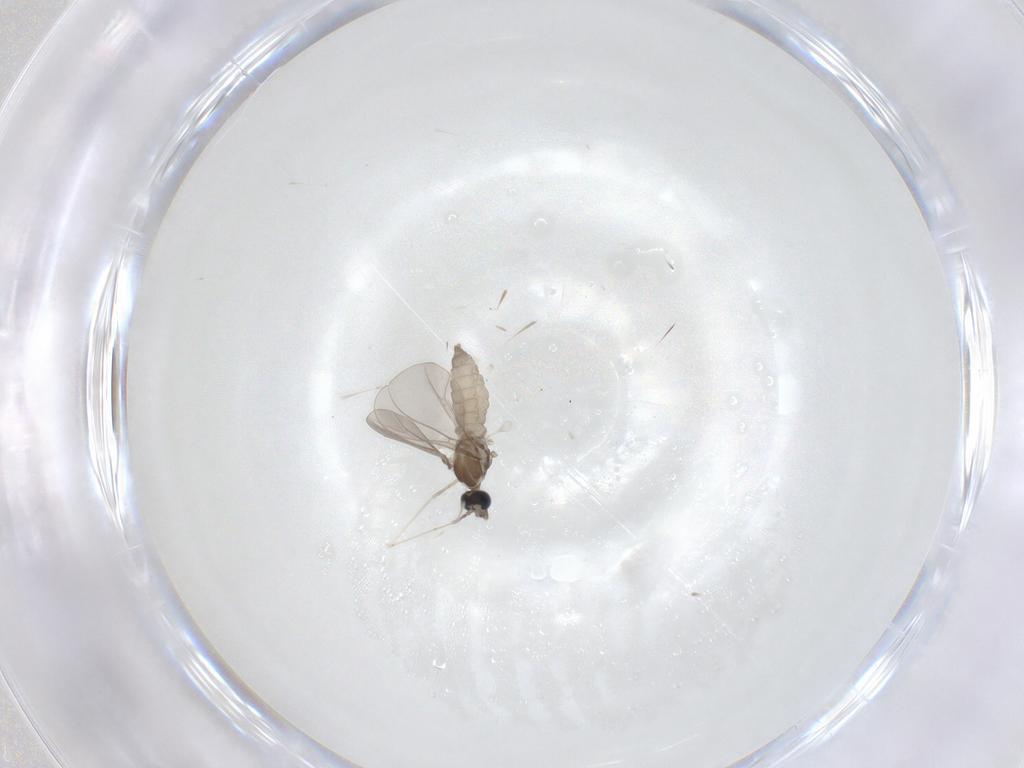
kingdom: Animalia
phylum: Arthropoda
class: Insecta
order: Diptera
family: Cecidomyiidae
